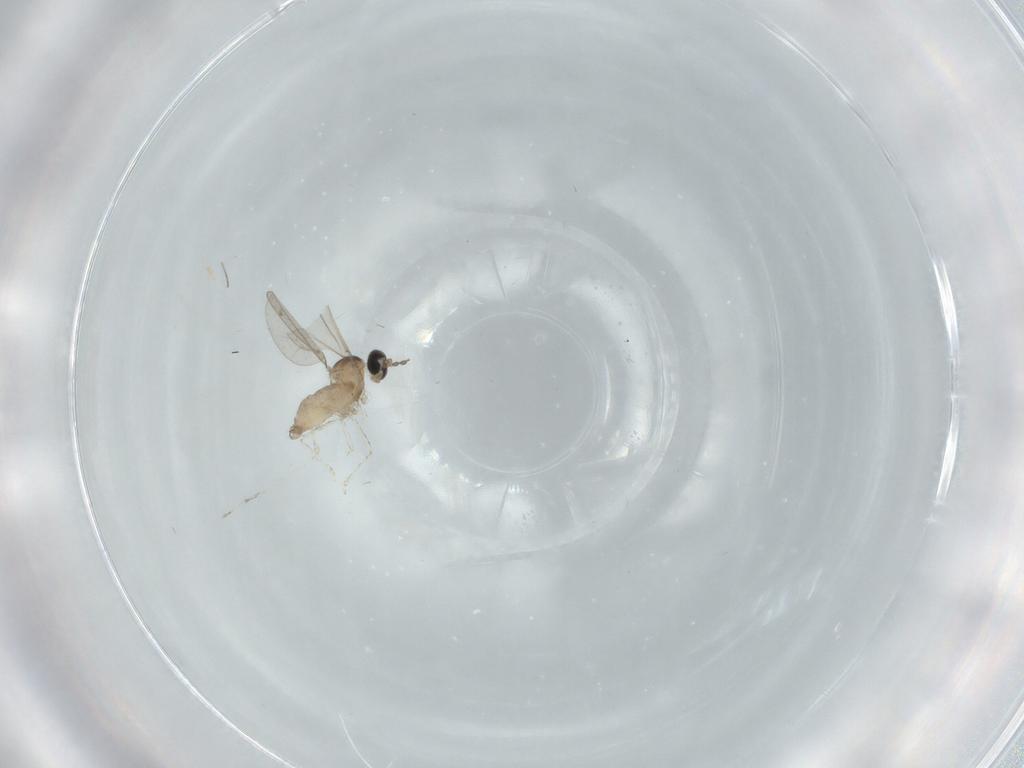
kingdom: Animalia
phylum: Arthropoda
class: Insecta
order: Diptera
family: Cecidomyiidae
